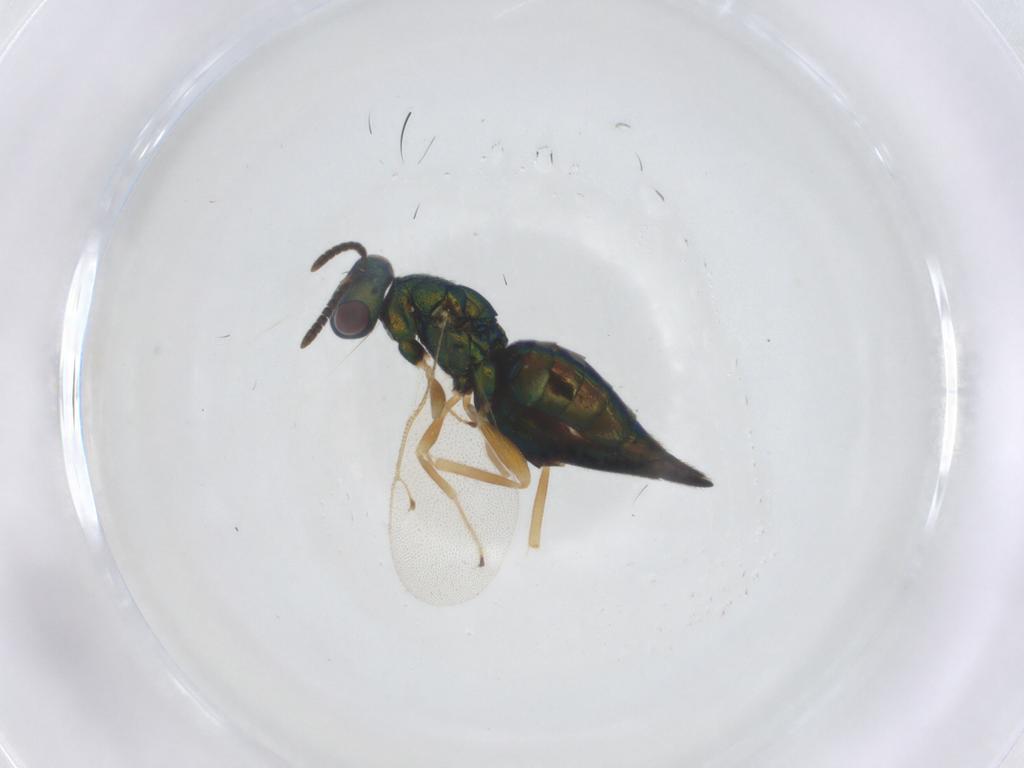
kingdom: Animalia
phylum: Arthropoda
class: Insecta
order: Hymenoptera
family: Pteromalidae
